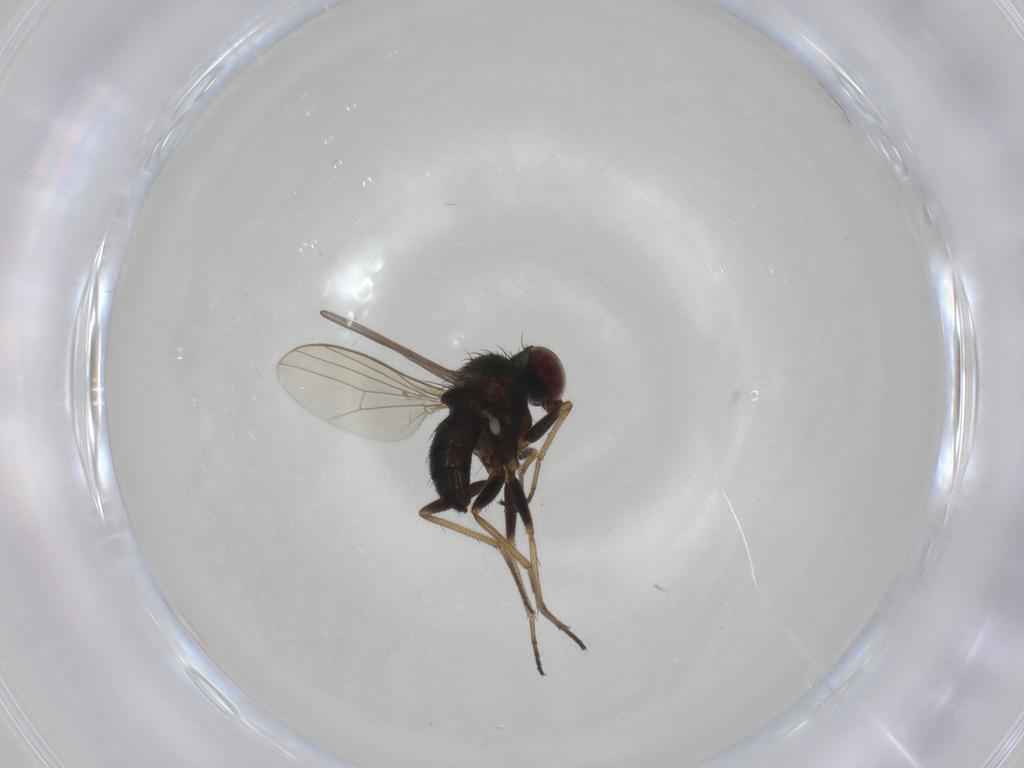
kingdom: Animalia
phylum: Arthropoda
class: Insecta
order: Diptera
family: Dolichopodidae
